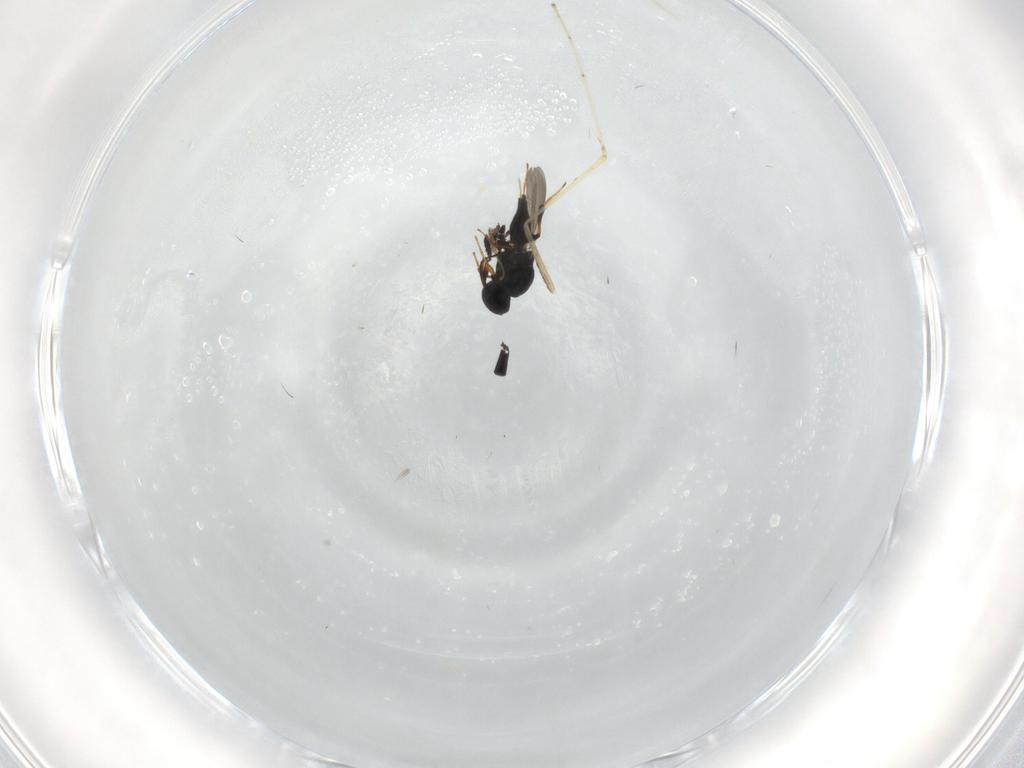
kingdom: Animalia
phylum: Arthropoda
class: Insecta
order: Hymenoptera
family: Platygastridae
